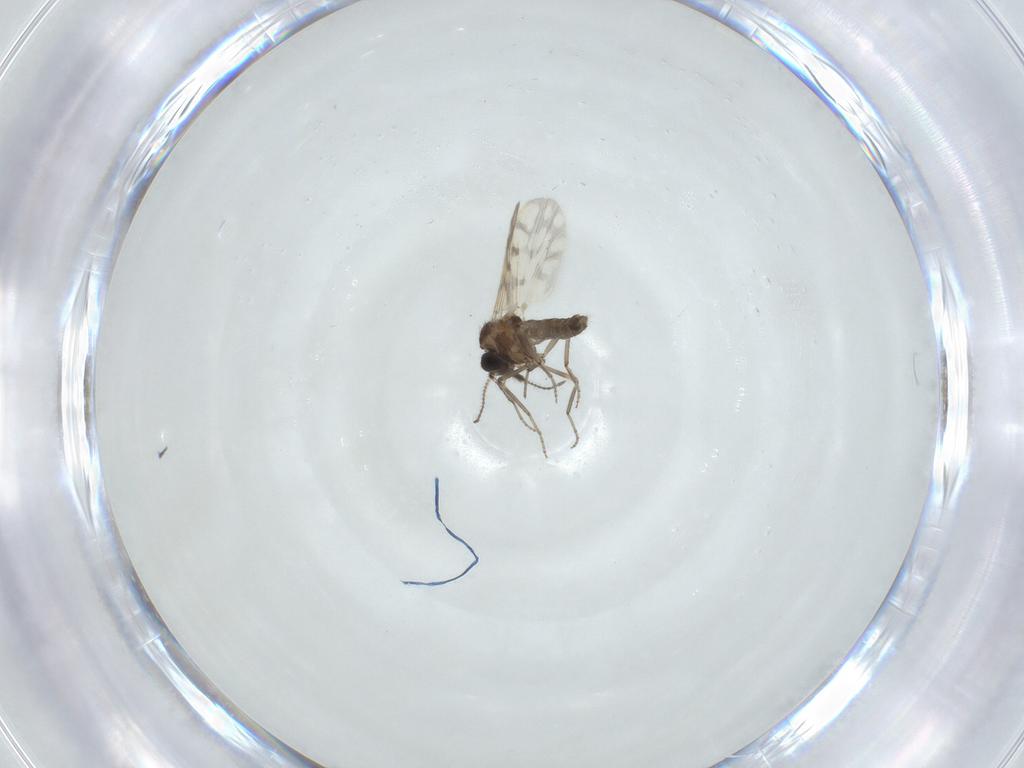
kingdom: Animalia
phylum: Arthropoda
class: Insecta
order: Diptera
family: Ceratopogonidae
